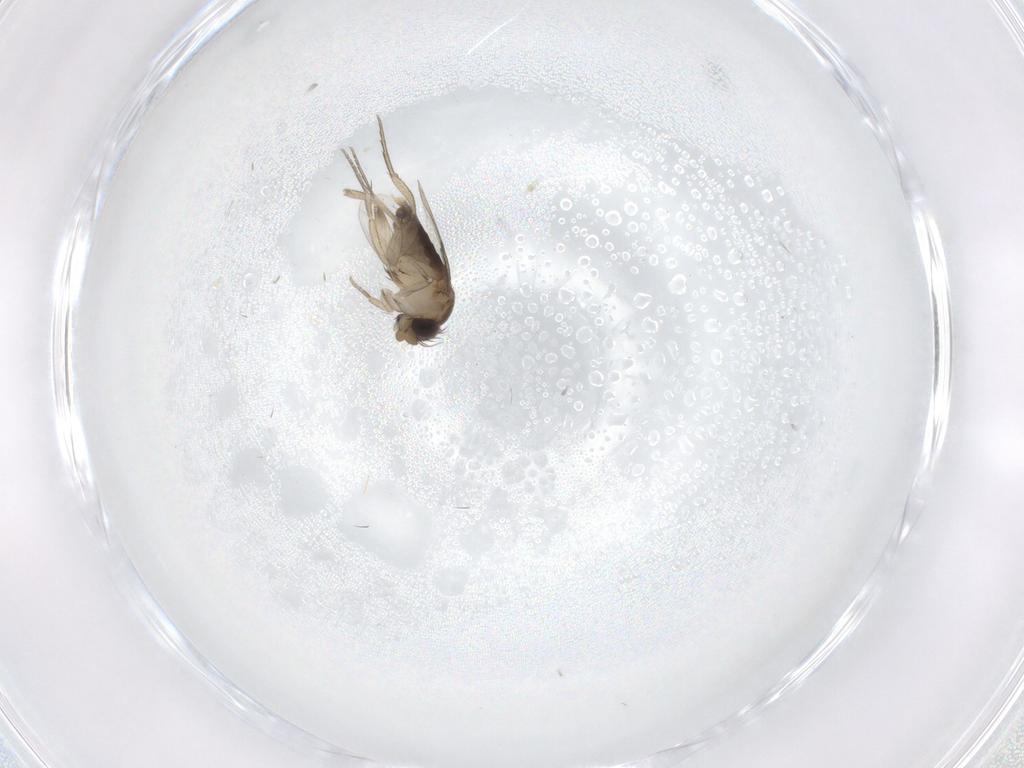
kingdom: Animalia
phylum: Arthropoda
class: Insecta
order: Diptera
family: Phoridae
